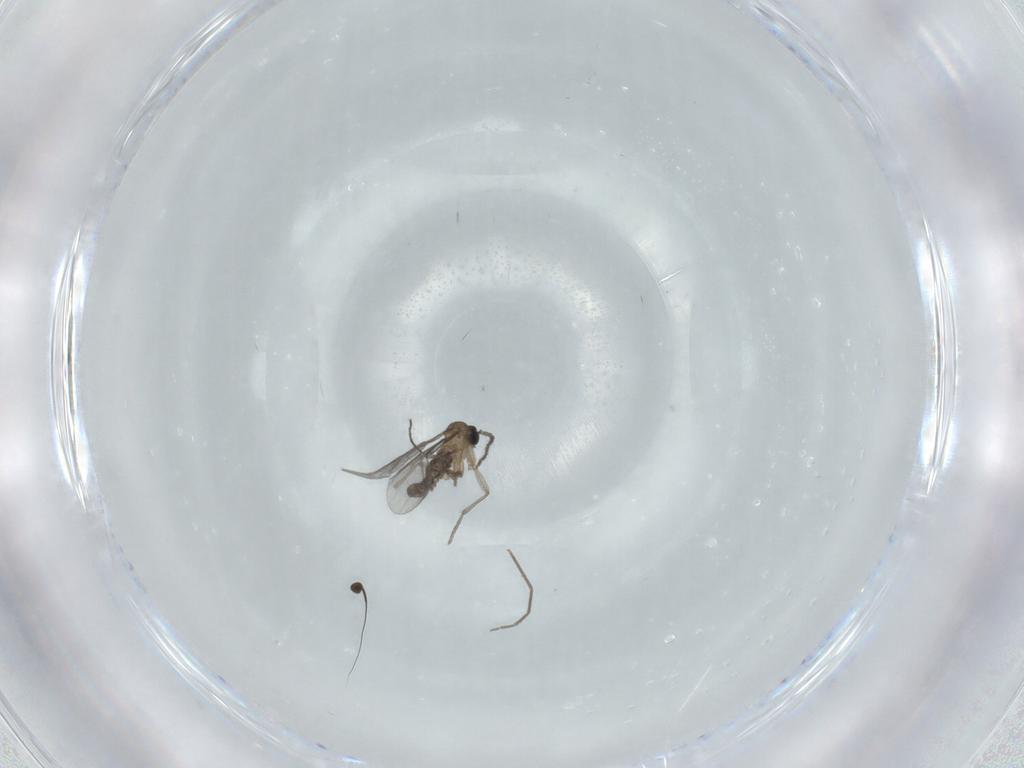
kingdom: Animalia
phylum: Arthropoda
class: Insecta
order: Diptera
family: Sciaridae
